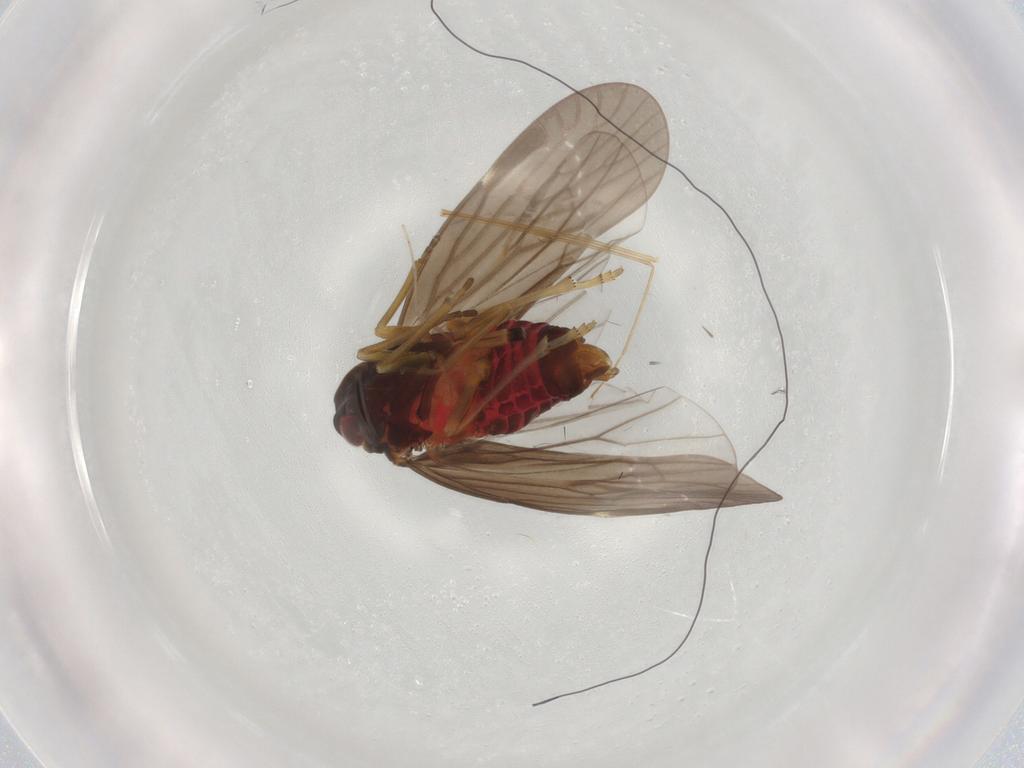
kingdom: Animalia
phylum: Arthropoda
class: Insecta
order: Hemiptera
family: Derbidae
